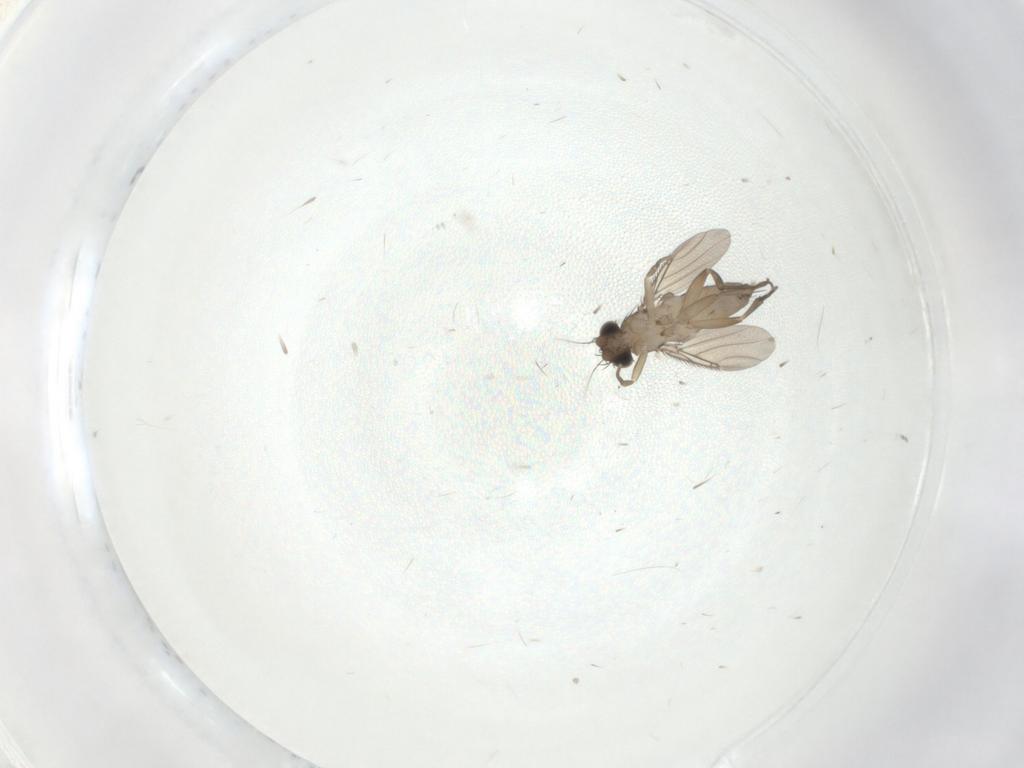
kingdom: Animalia
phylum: Arthropoda
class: Insecta
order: Diptera
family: Phoridae
